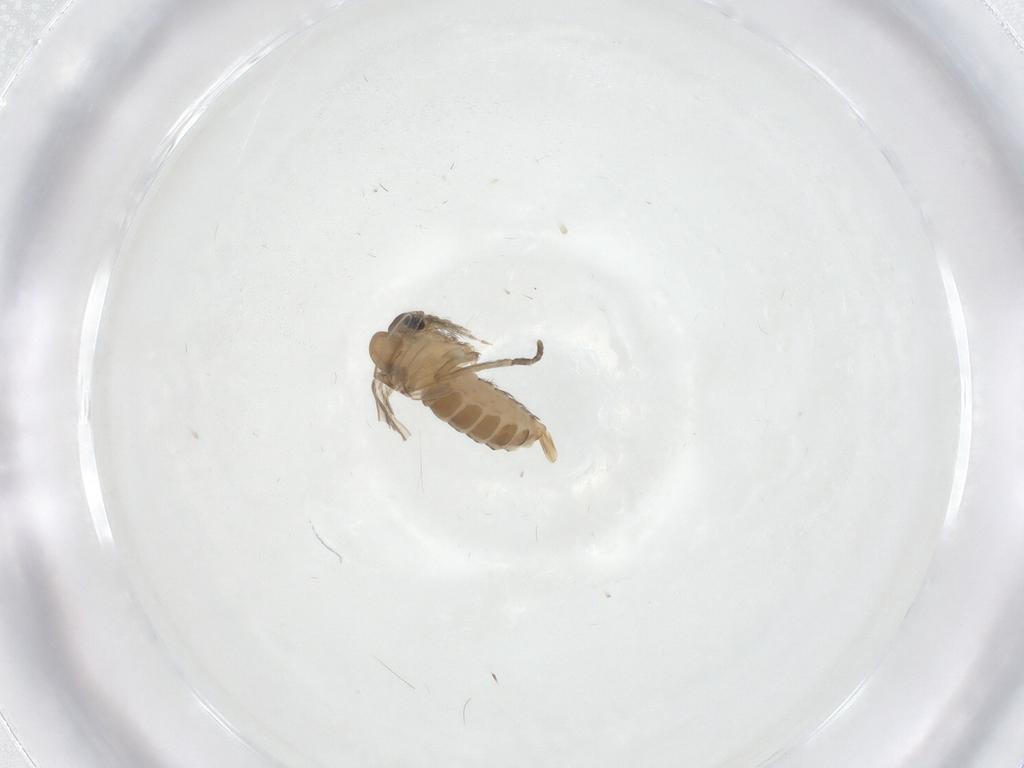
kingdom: Animalia
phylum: Arthropoda
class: Insecta
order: Diptera
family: Psychodidae
